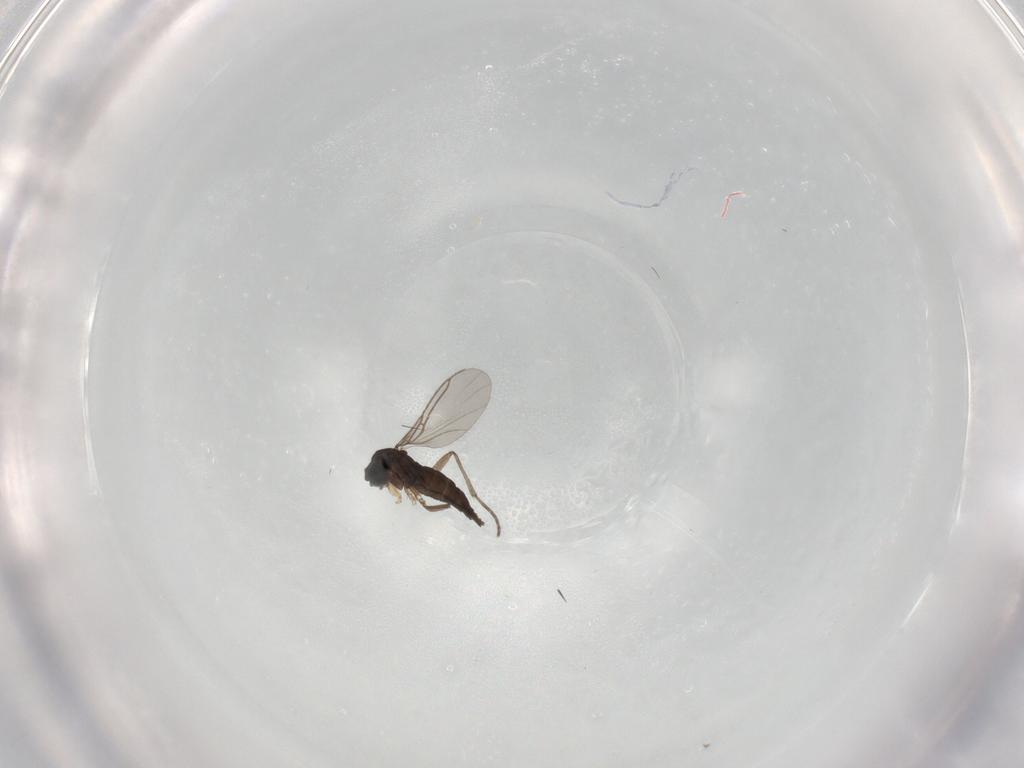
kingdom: Animalia
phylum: Arthropoda
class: Insecta
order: Diptera
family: Sciaridae
